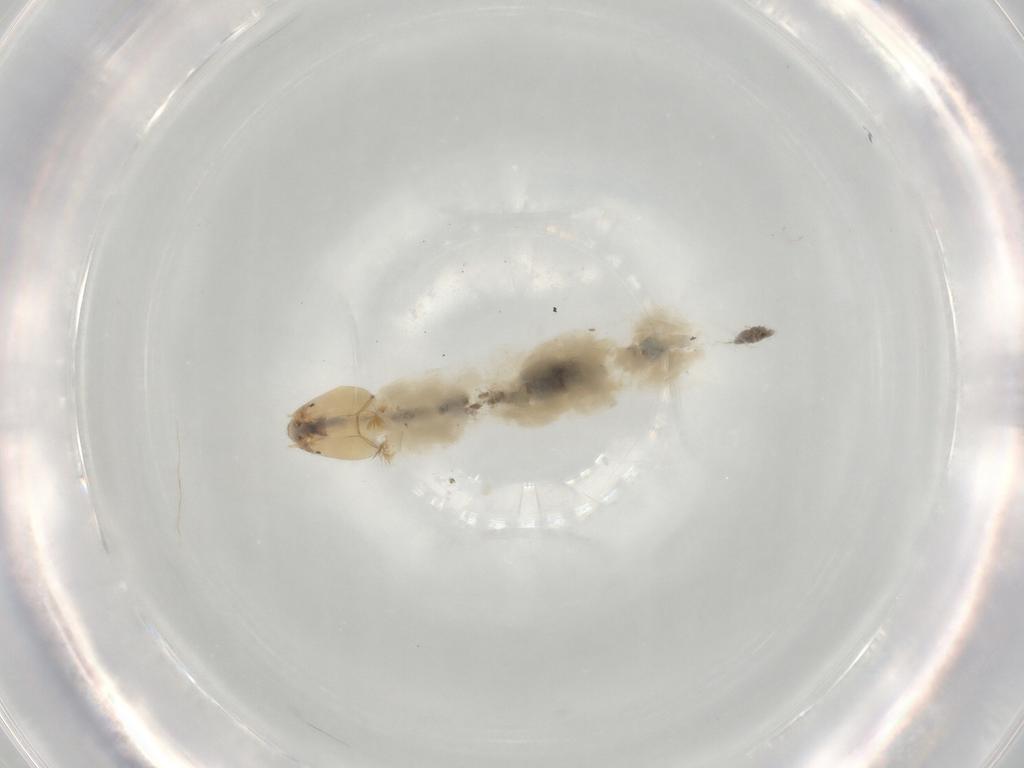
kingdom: Animalia
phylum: Arthropoda
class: Insecta
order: Diptera
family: Chironomidae
